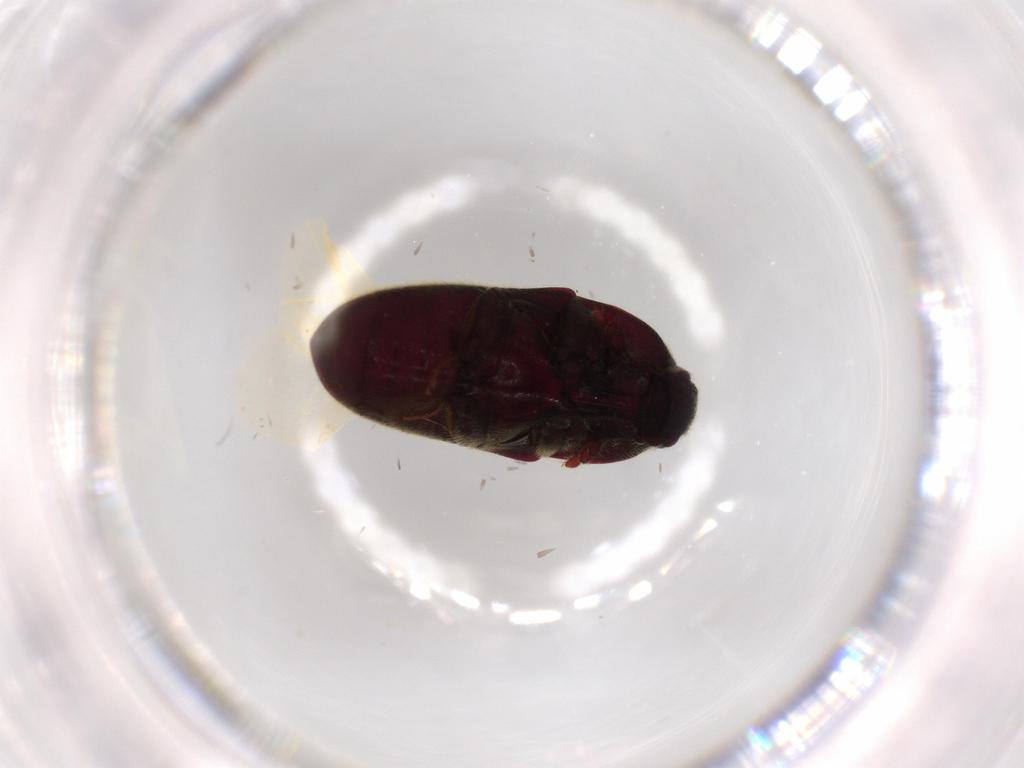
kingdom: Animalia
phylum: Arthropoda
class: Insecta
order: Coleoptera
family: Throscidae
